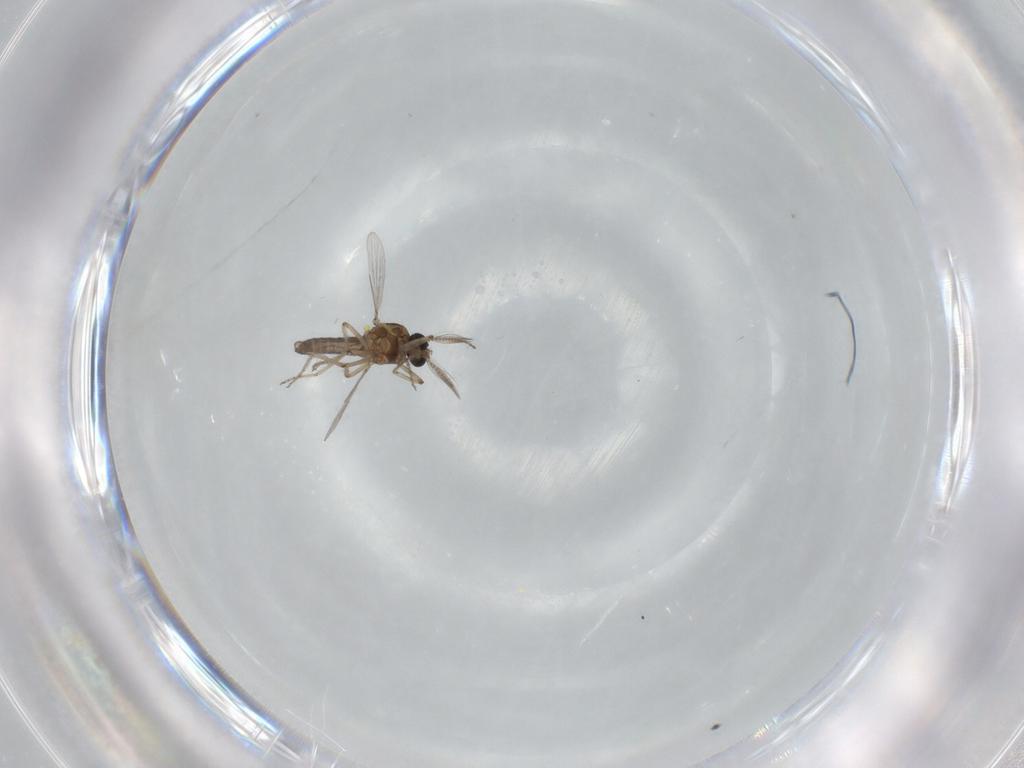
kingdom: Animalia
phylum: Arthropoda
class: Insecta
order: Diptera
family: Ceratopogonidae
